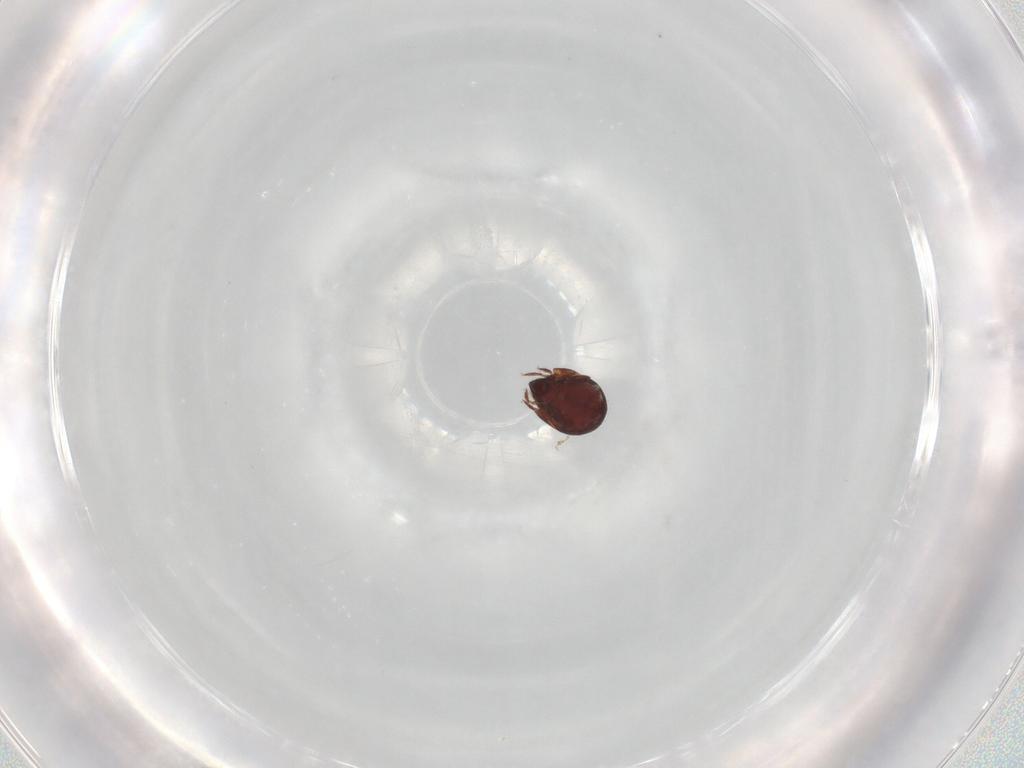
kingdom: Animalia
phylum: Arthropoda
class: Arachnida
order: Sarcoptiformes
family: Humerobatidae
